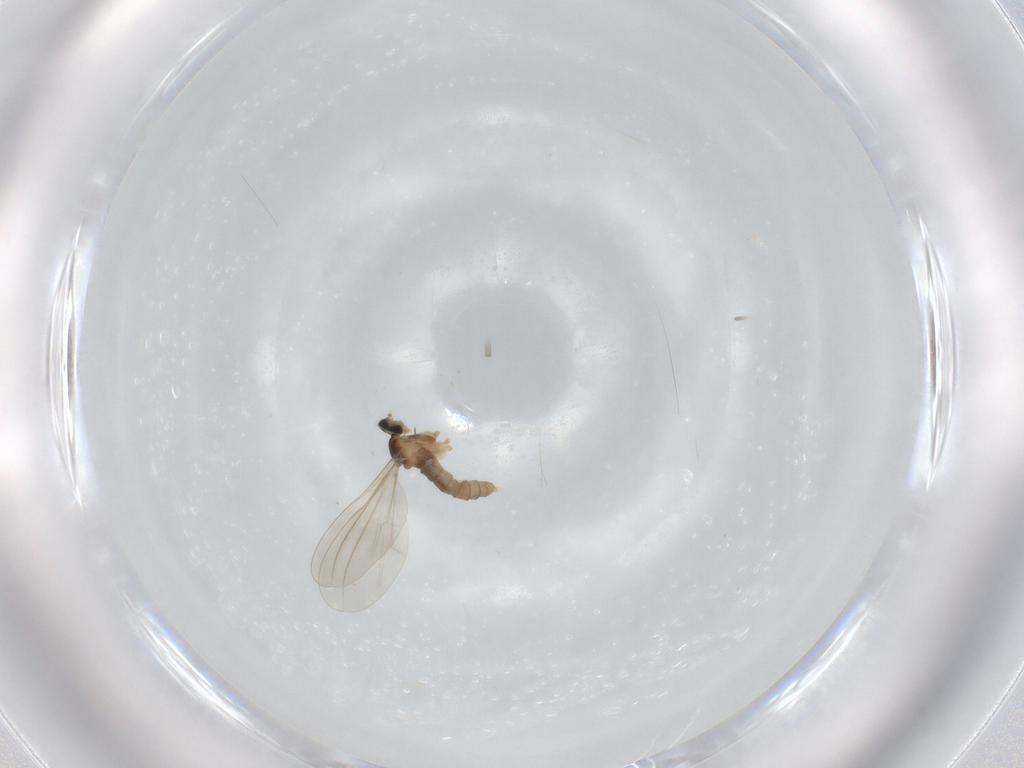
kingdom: Animalia
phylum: Arthropoda
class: Insecta
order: Diptera
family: Cecidomyiidae
